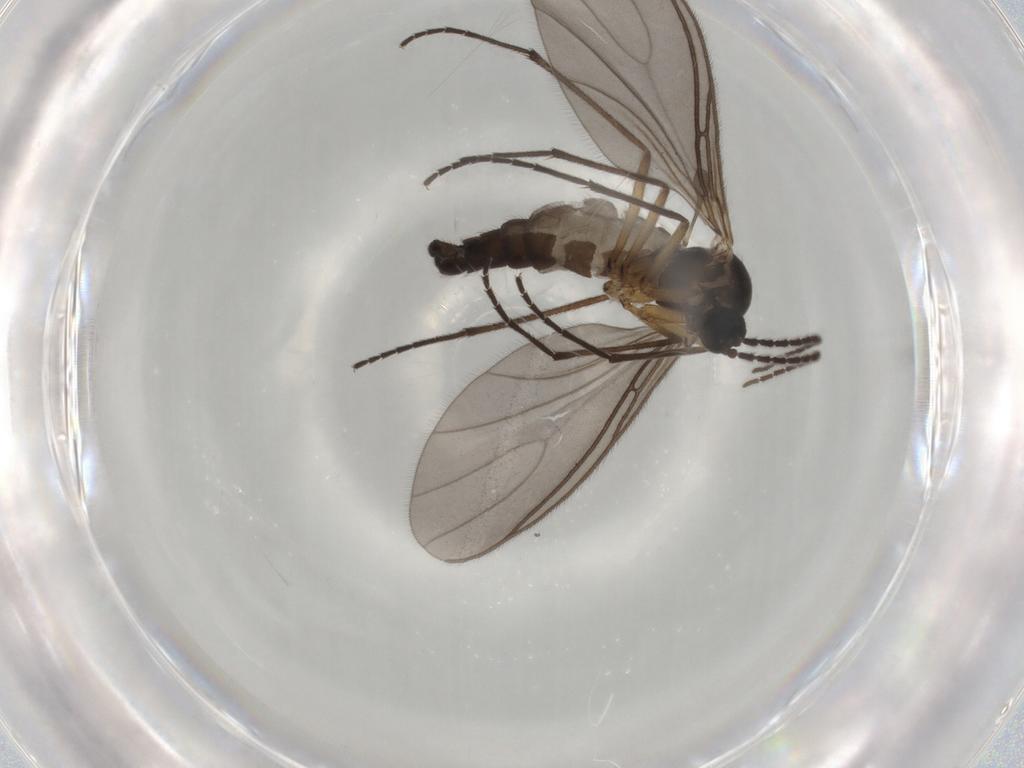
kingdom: Animalia
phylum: Arthropoda
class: Insecta
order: Diptera
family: Sciaridae
